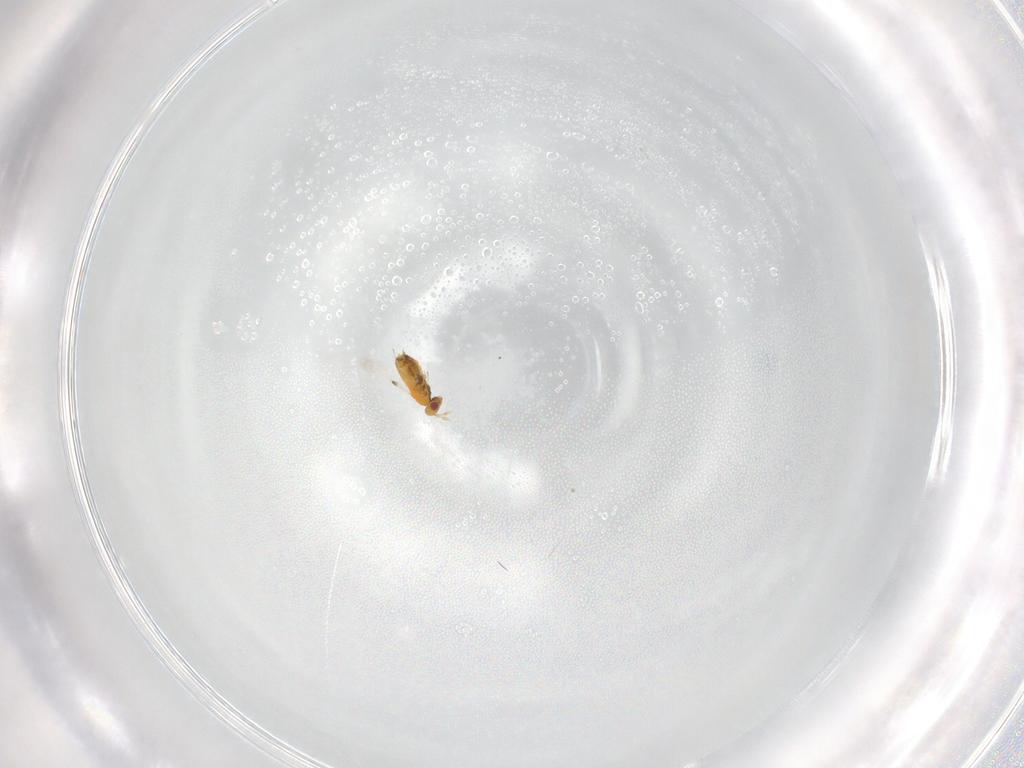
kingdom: Animalia
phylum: Arthropoda
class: Insecta
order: Hymenoptera
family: Trichogrammatidae
